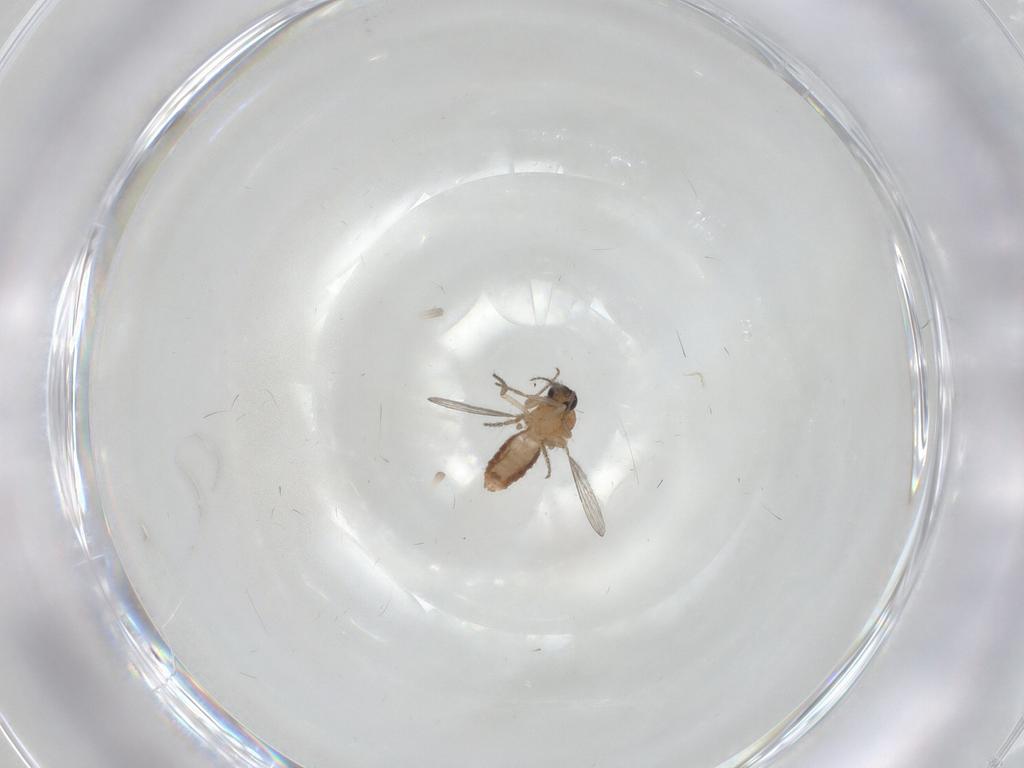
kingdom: Animalia
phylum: Arthropoda
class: Insecta
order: Diptera
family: Ceratopogonidae
